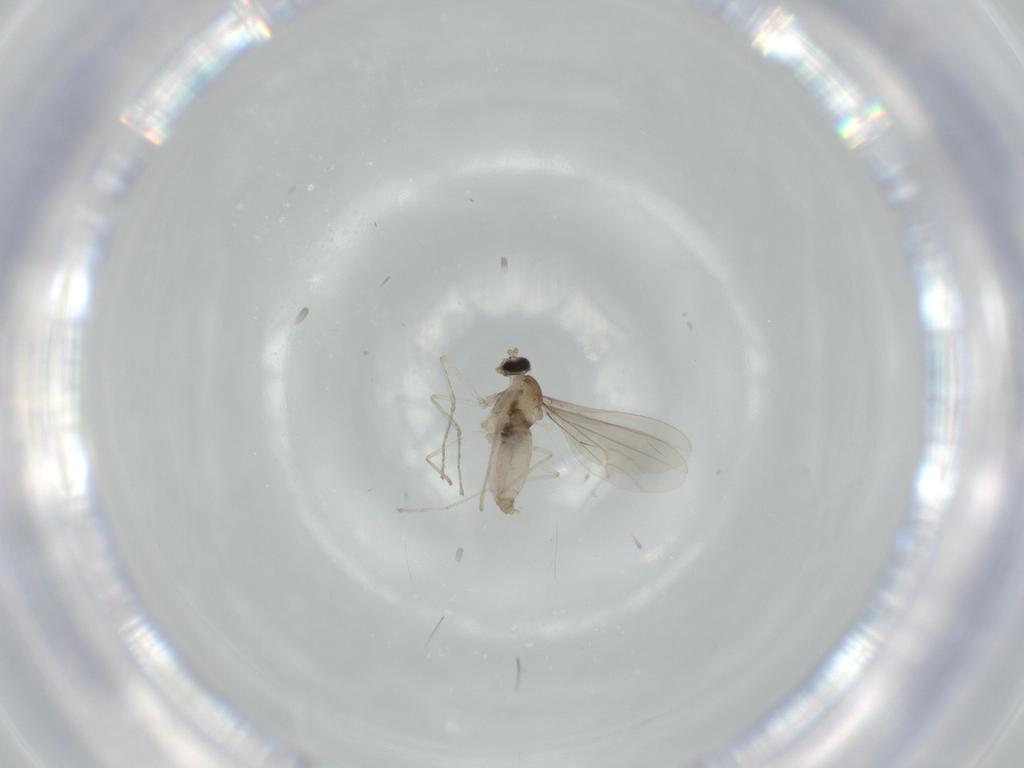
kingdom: Animalia
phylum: Arthropoda
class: Insecta
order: Diptera
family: Cecidomyiidae
